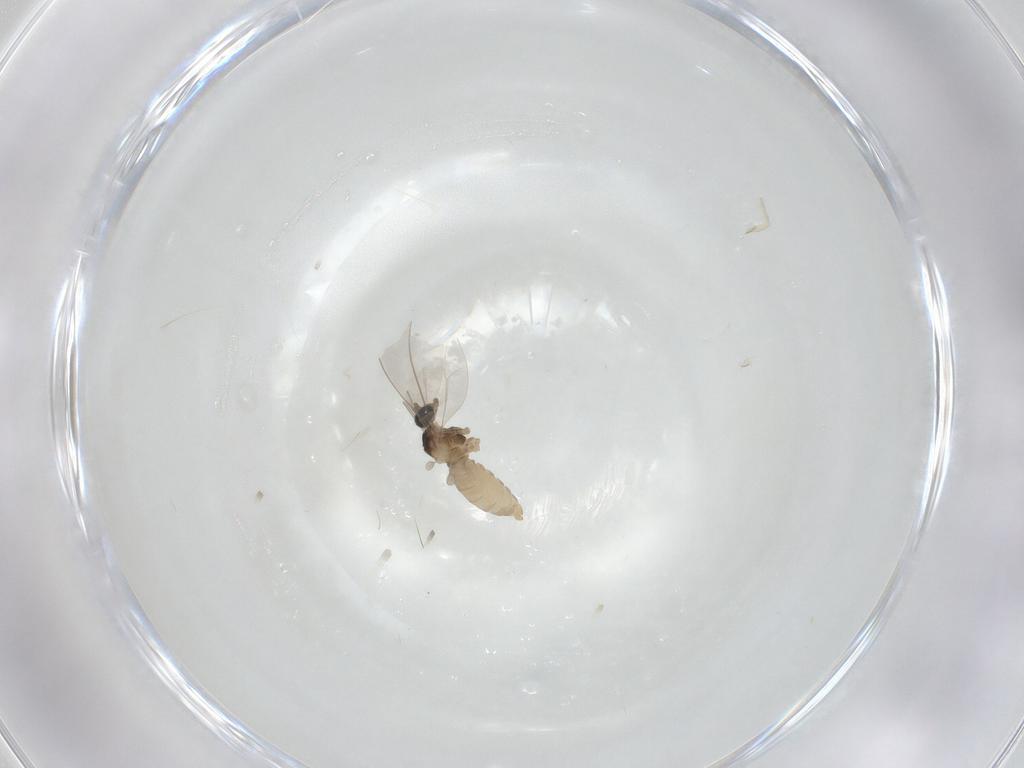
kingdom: Animalia
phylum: Arthropoda
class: Insecta
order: Diptera
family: Cecidomyiidae
